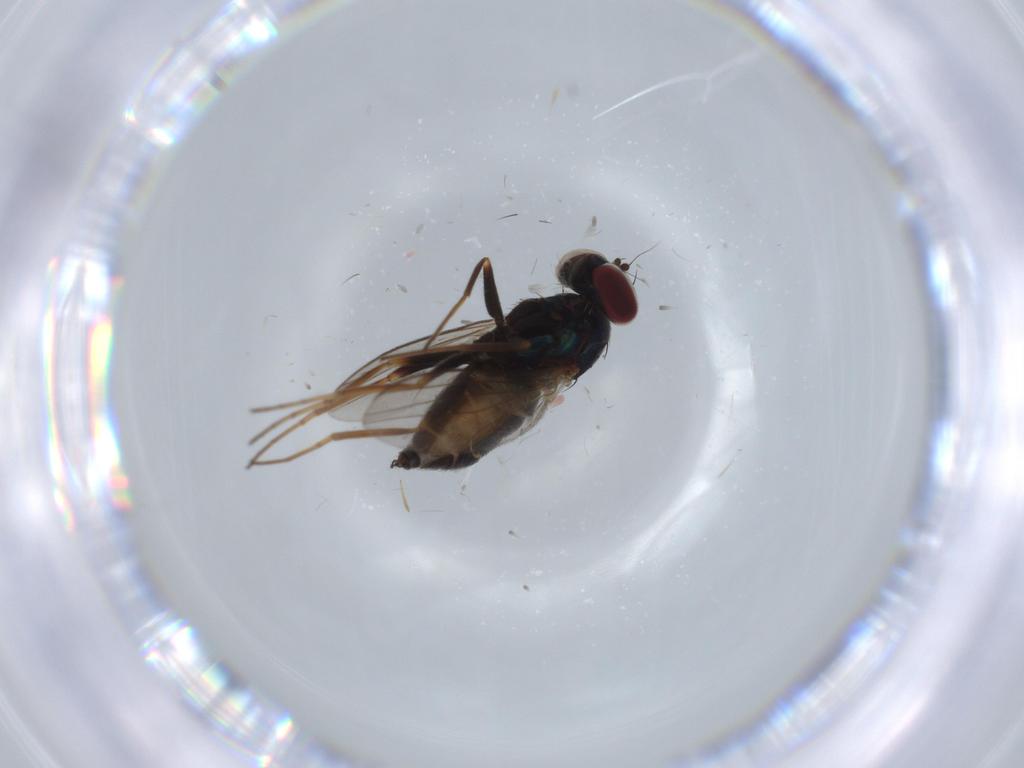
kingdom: Animalia
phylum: Arthropoda
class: Insecta
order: Diptera
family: Dolichopodidae
